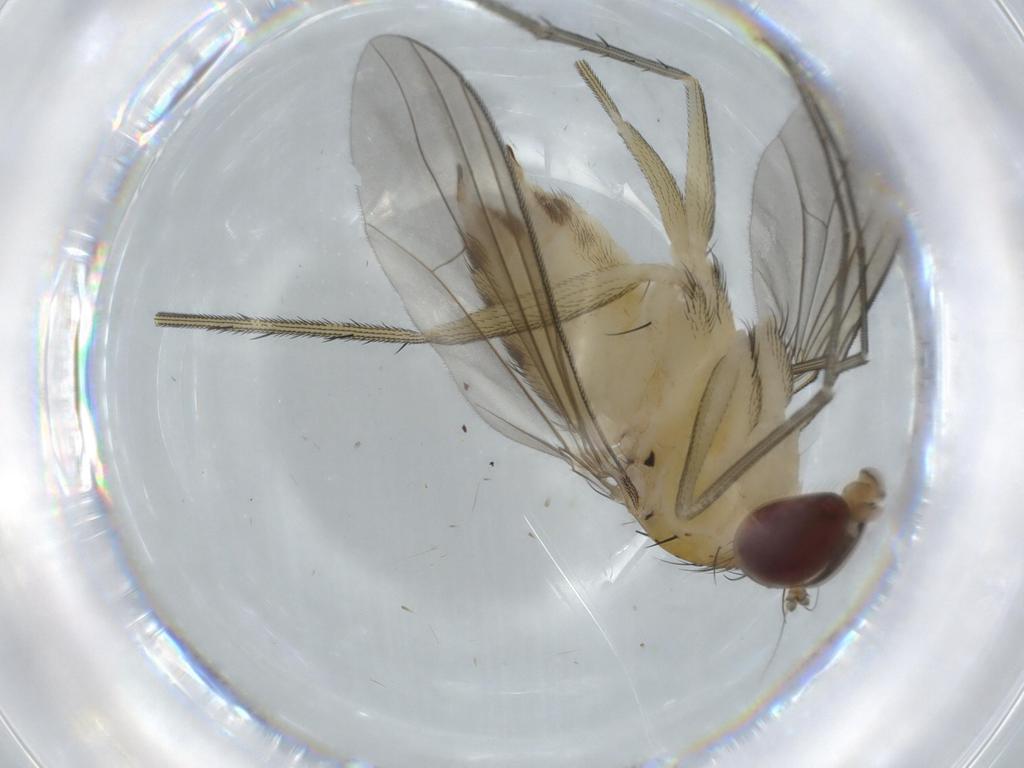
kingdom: Animalia
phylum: Arthropoda
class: Insecta
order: Diptera
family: Dolichopodidae
